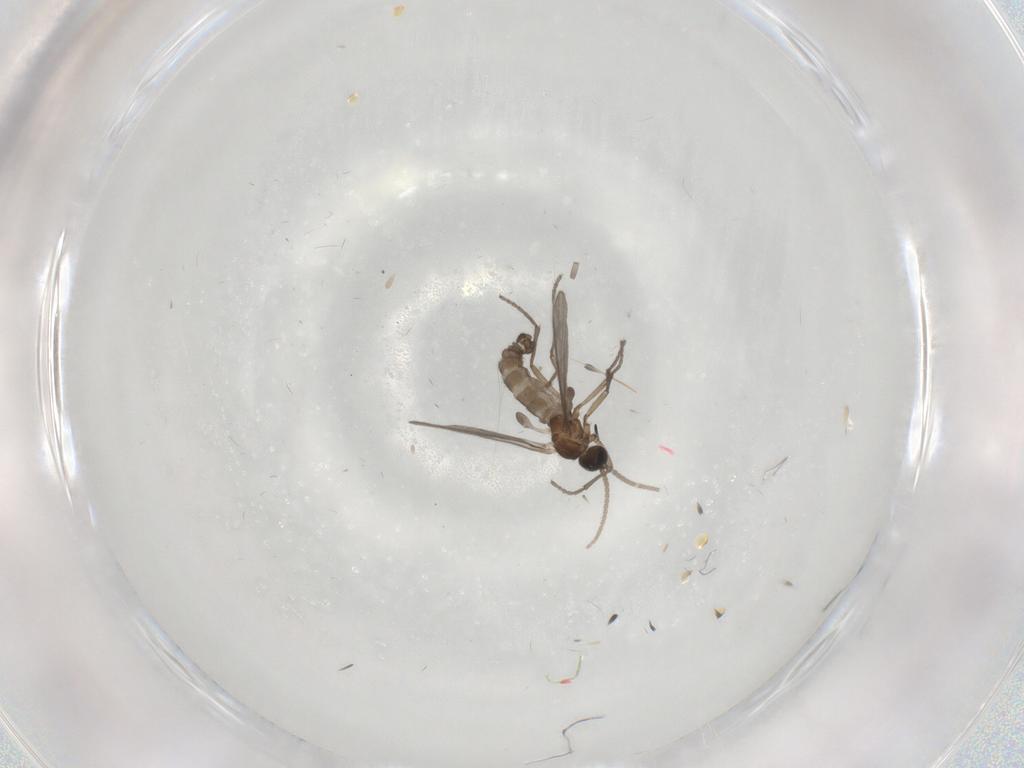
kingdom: Animalia
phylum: Arthropoda
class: Insecta
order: Diptera
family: Sciaridae
